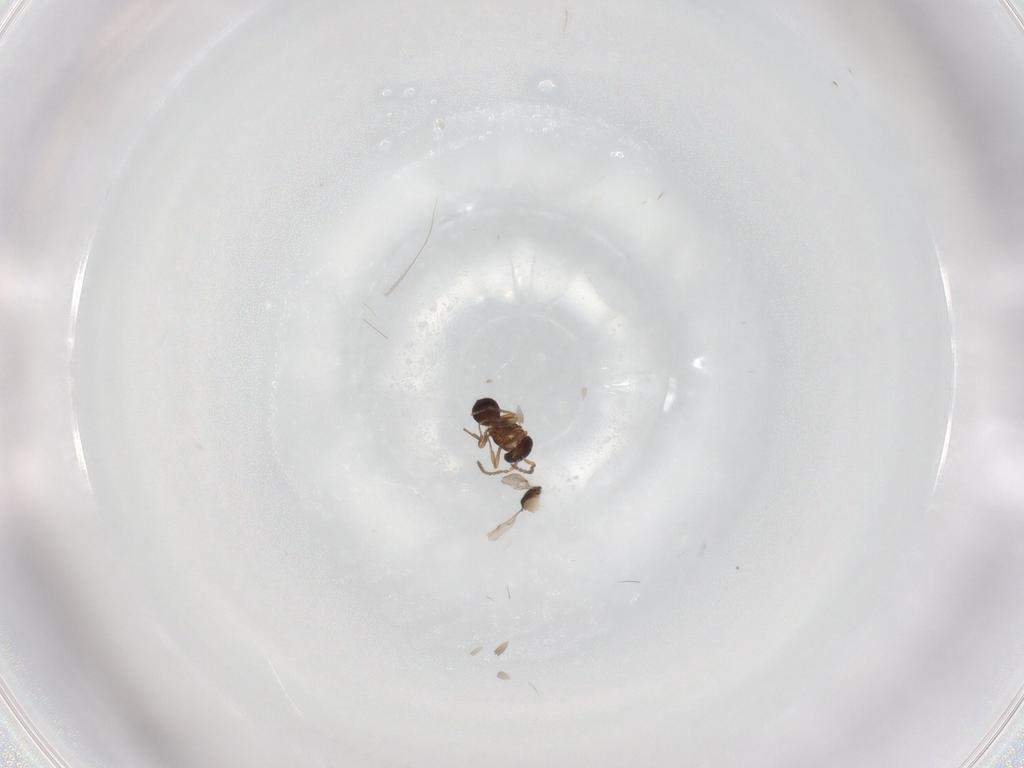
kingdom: Animalia
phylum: Arthropoda
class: Insecta
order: Hymenoptera
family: Scelionidae
